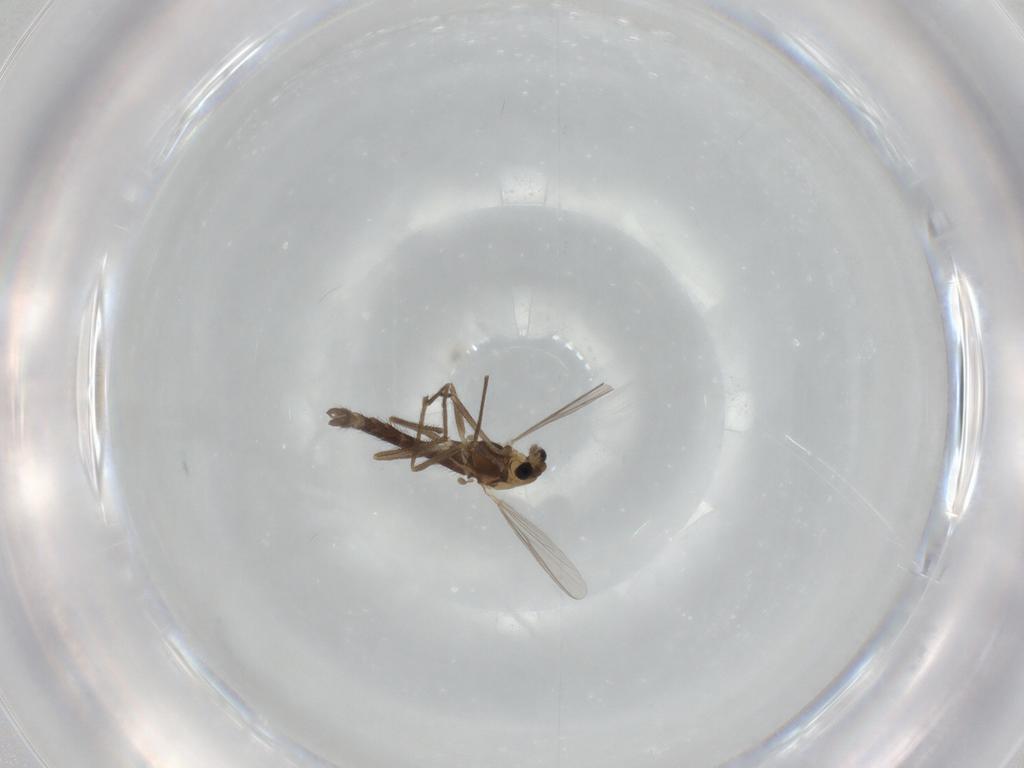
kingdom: Animalia
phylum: Arthropoda
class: Insecta
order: Diptera
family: Chironomidae
